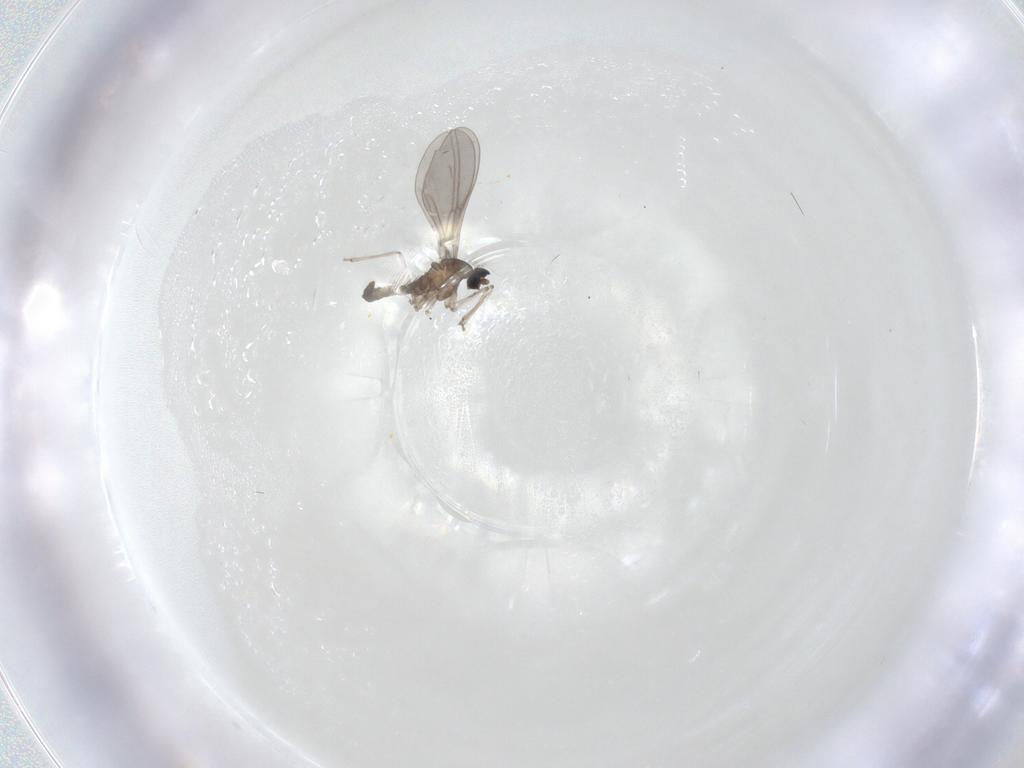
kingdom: Animalia
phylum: Arthropoda
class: Insecta
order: Diptera
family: Cecidomyiidae
